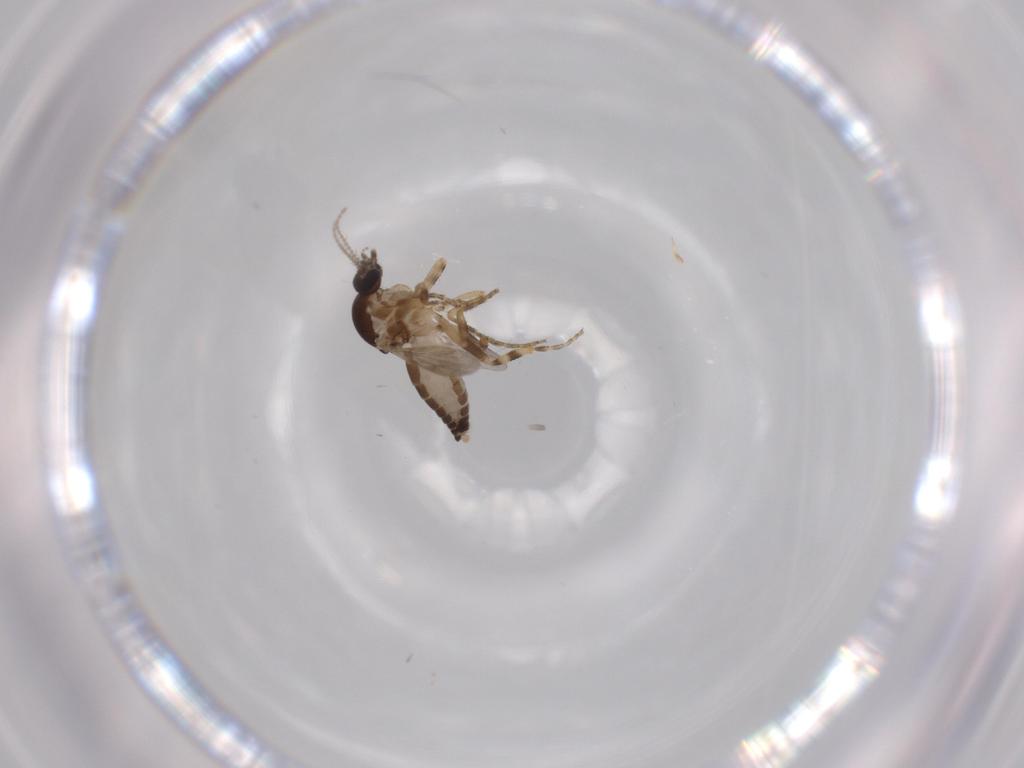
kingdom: Animalia
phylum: Arthropoda
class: Insecta
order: Diptera
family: Ceratopogonidae
